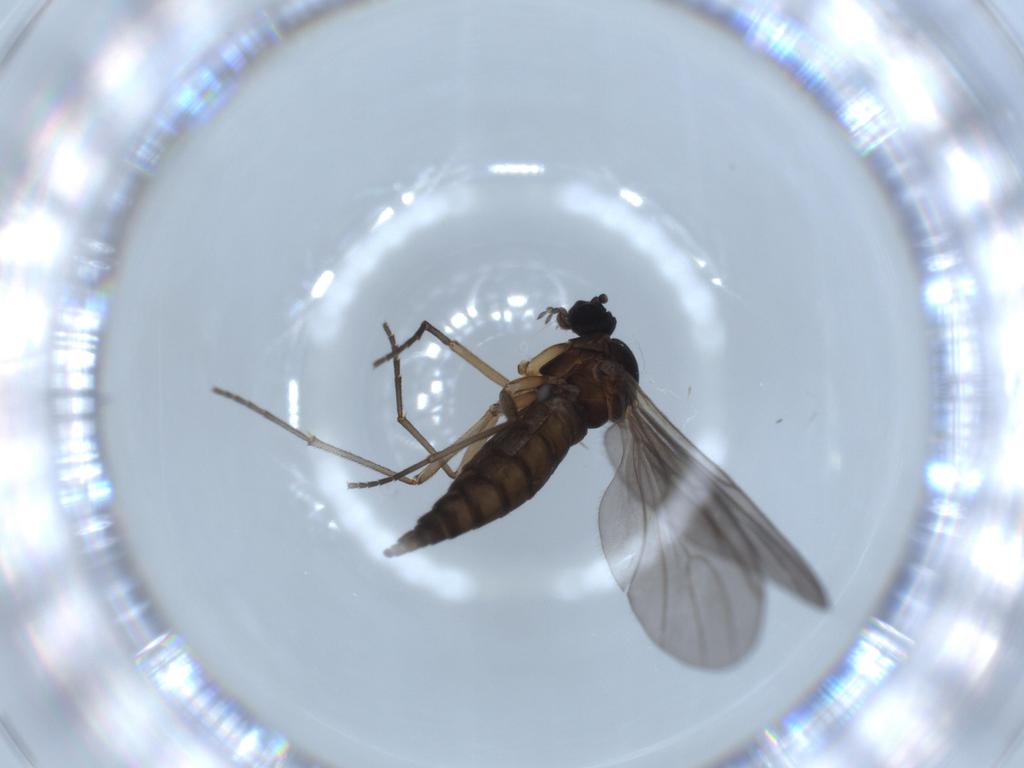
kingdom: Animalia
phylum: Arthropoda
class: Insecta
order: Diptera
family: Sciaridae
